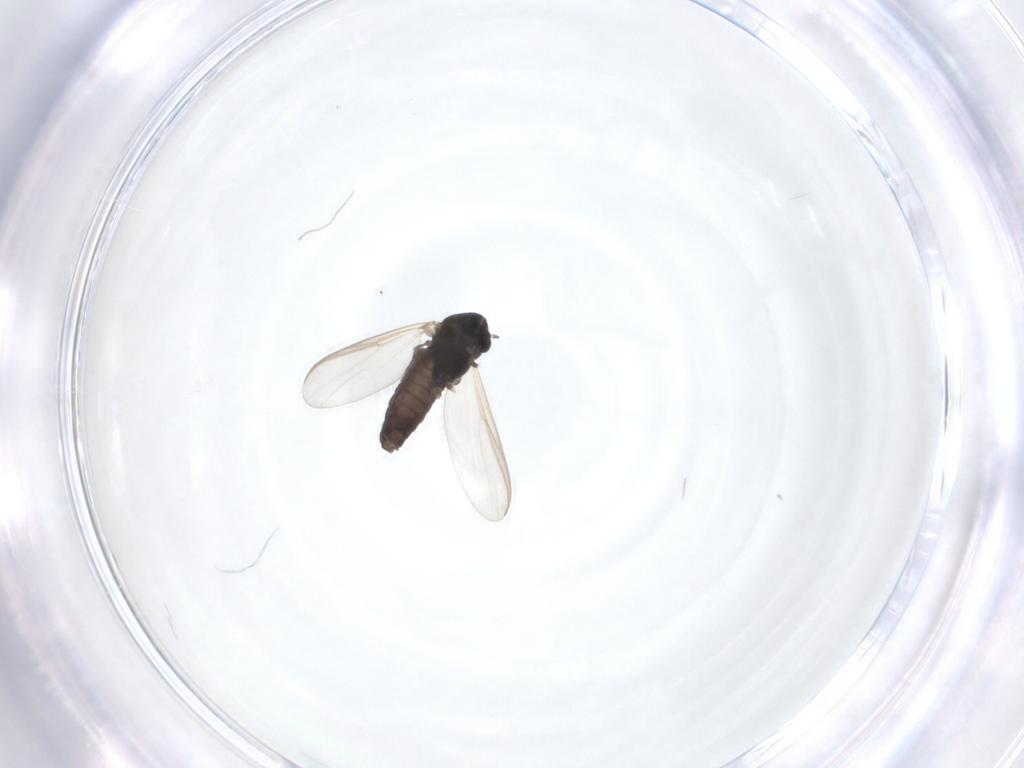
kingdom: Animalia
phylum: Arthropoda
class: Insecta
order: Diptera
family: Chironomidae
